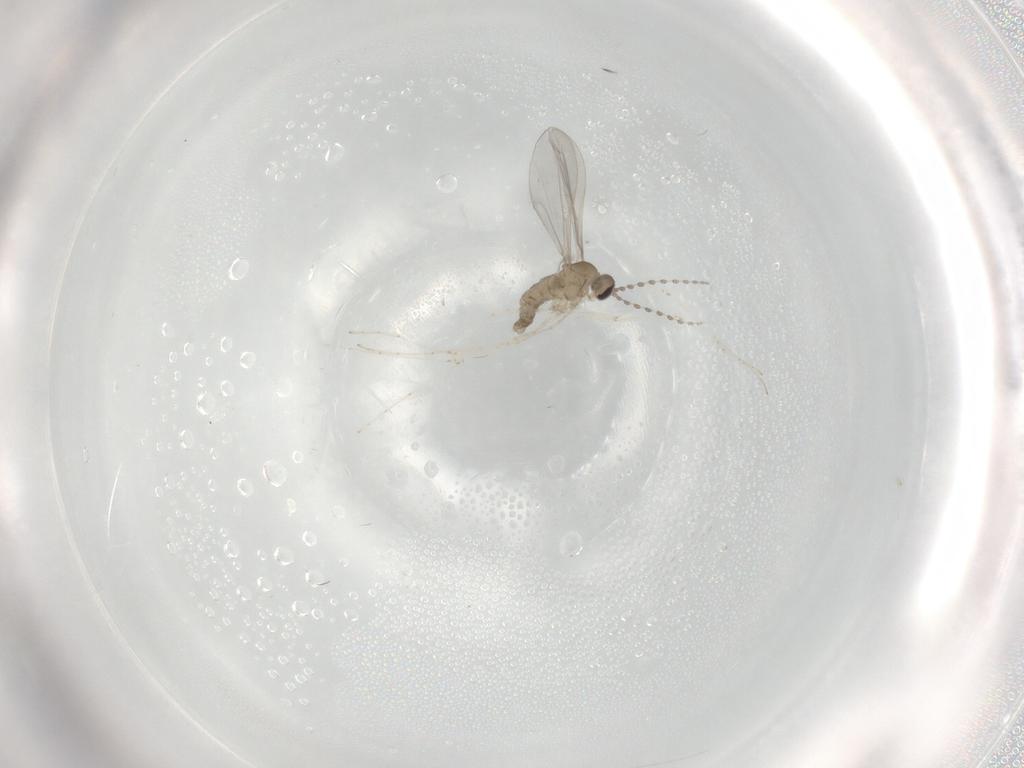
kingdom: Animalia
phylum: Arthropoda
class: Insecta
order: Diptera
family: Cecidomyiidae
